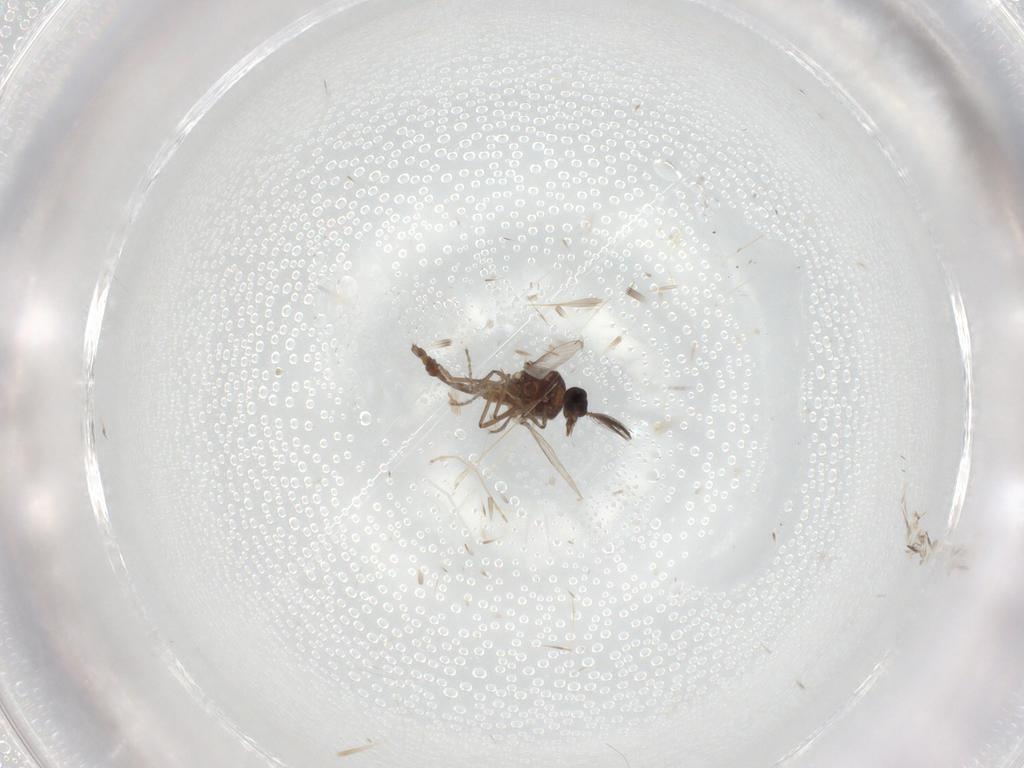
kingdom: Animalia
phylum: Arthropoda
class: Insecta
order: Diptera
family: Ceratopogonidae
